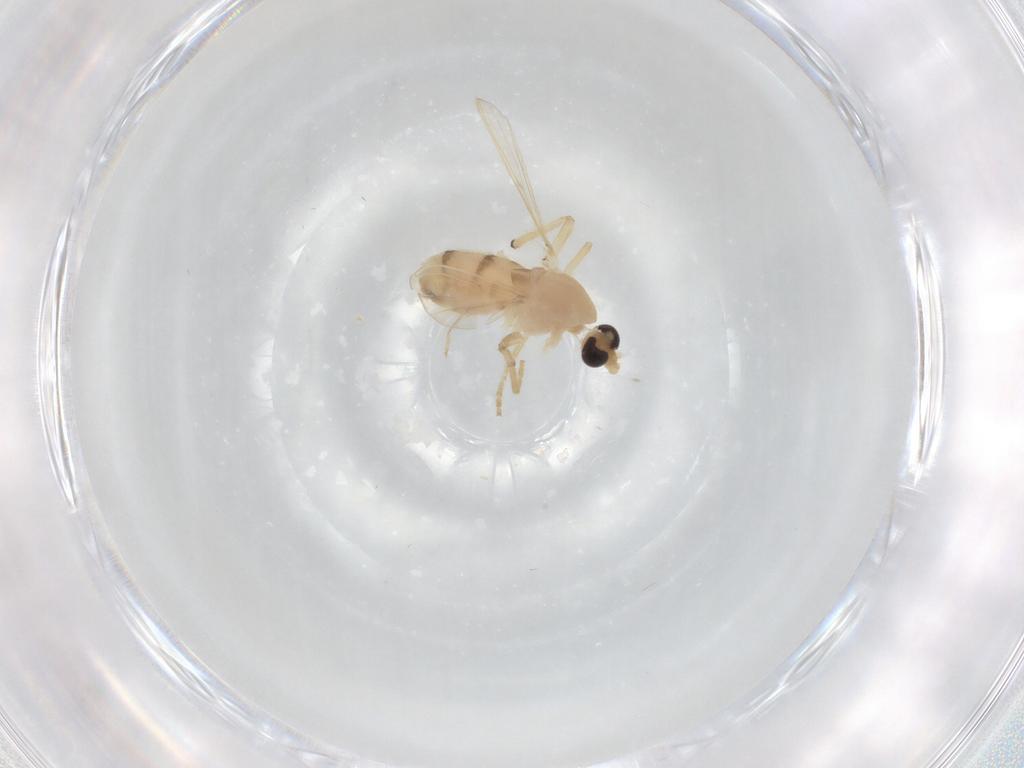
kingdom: Animalia
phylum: Arthropoda
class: Insecta
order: Diptera
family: Chironomidae
